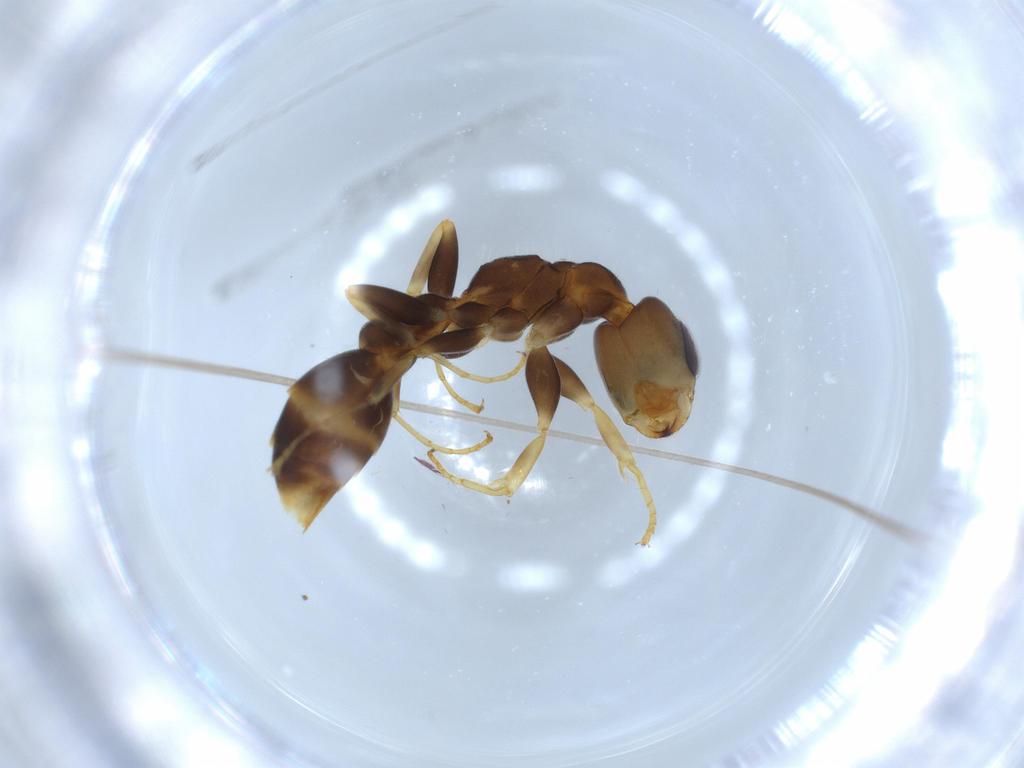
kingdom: Animalia
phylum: Arthropoda
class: Insecta
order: Hymenoptera
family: Formicidae
